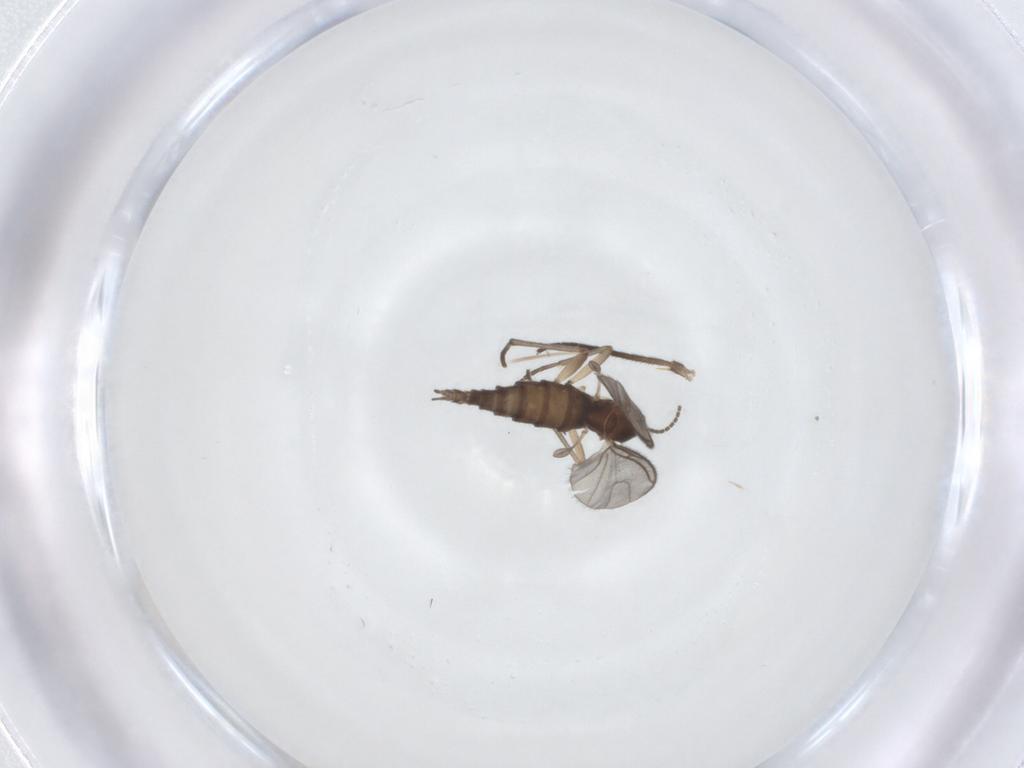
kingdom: Animalia
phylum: Arthropoda
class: Insecta
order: Diptera
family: Sciaridae
